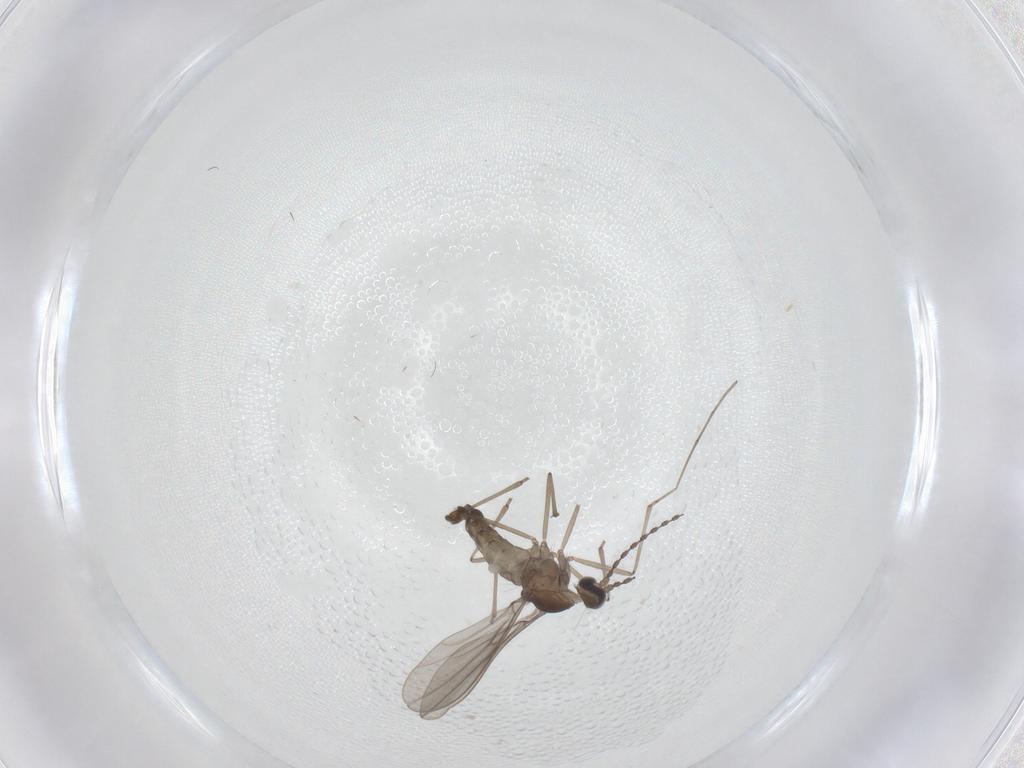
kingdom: Animalia
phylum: Arthropoda
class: Insecta
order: Diptera
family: Cecidomyiidae
